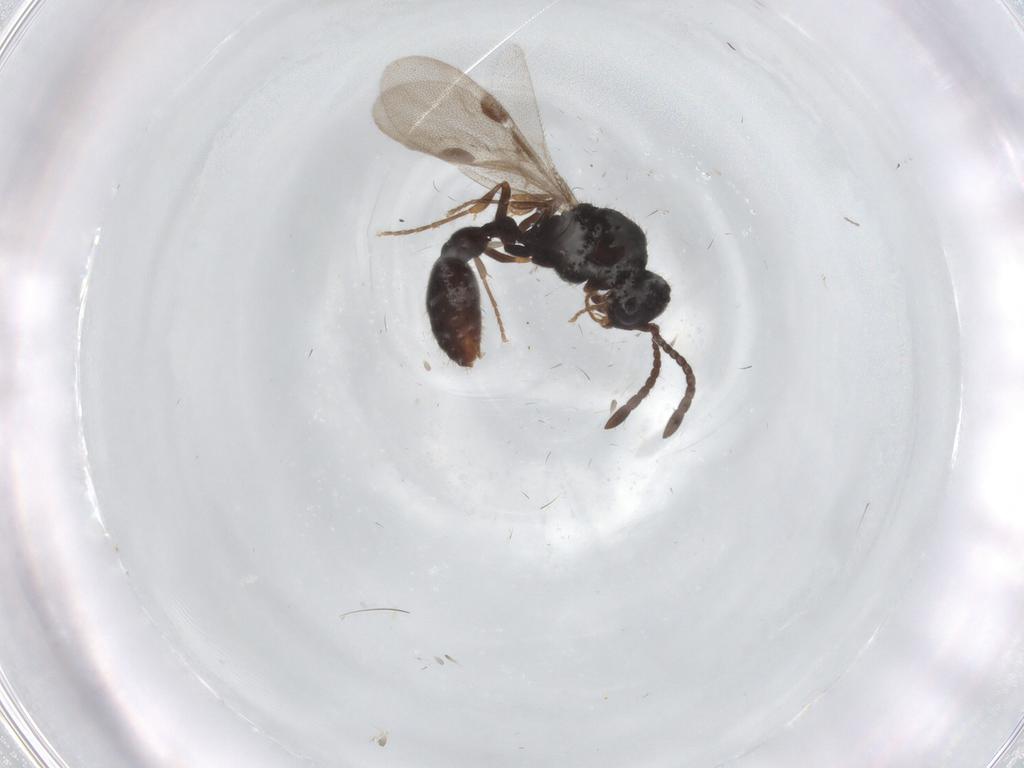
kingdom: Animalia
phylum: Arthropoda
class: Insecta
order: Hymenoptera
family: Formicidae
